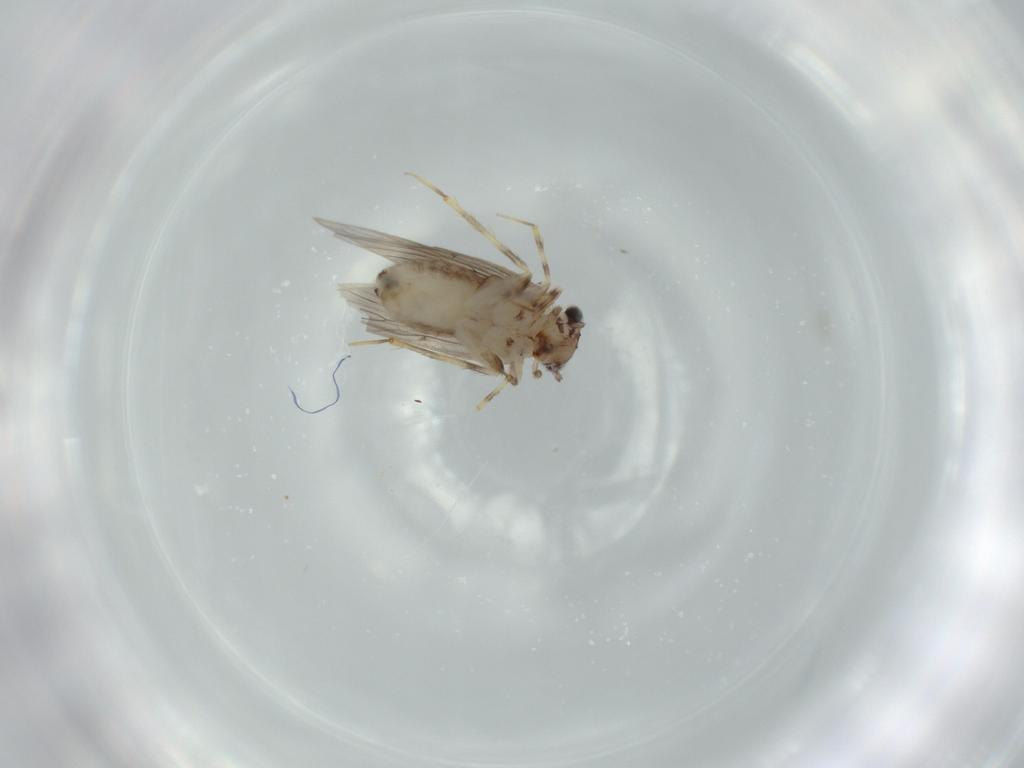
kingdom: Animalia
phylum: Arthropoda
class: Insecta
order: Psocodea
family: Lepidopsocidae
